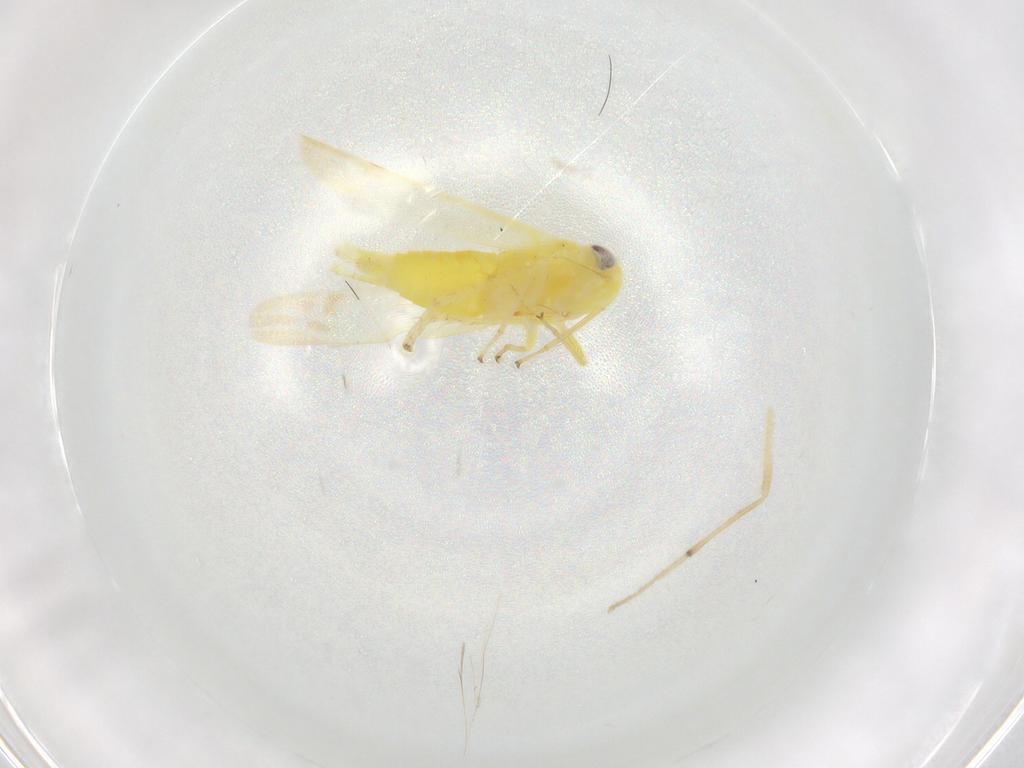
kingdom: Animalia
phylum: Arthropoda
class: Insecta
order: Hemiptera
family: Cicadellidae
